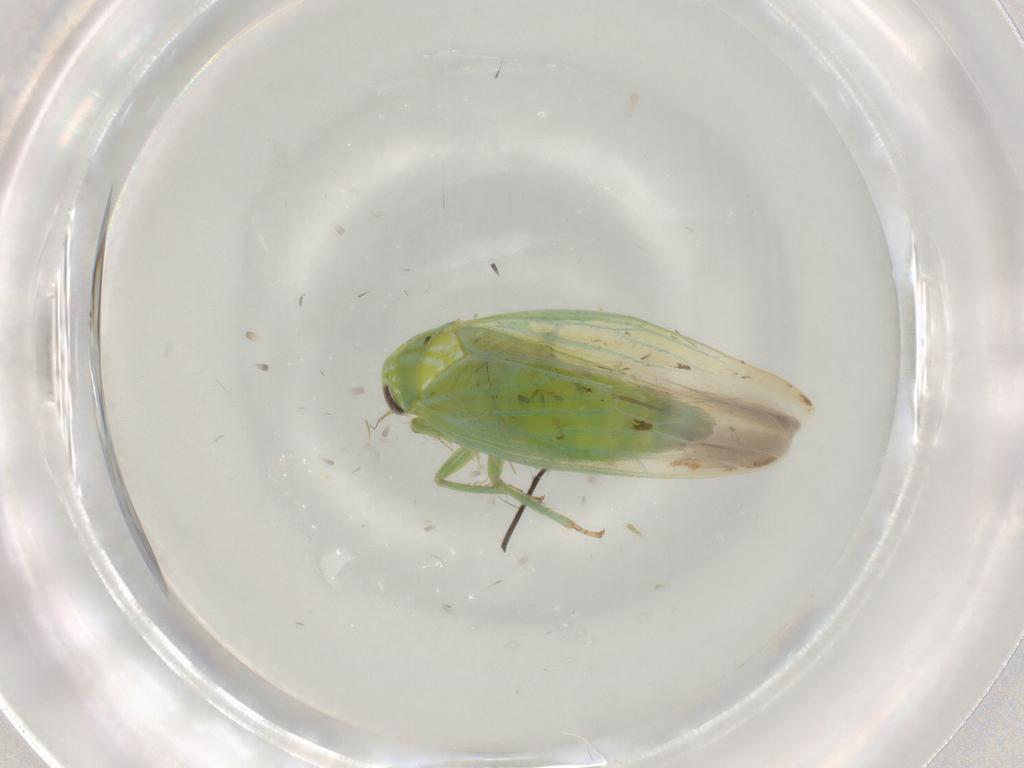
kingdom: Animalia
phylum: Arthropoda
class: Insecta
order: Hemiptera
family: Cicadellidae
